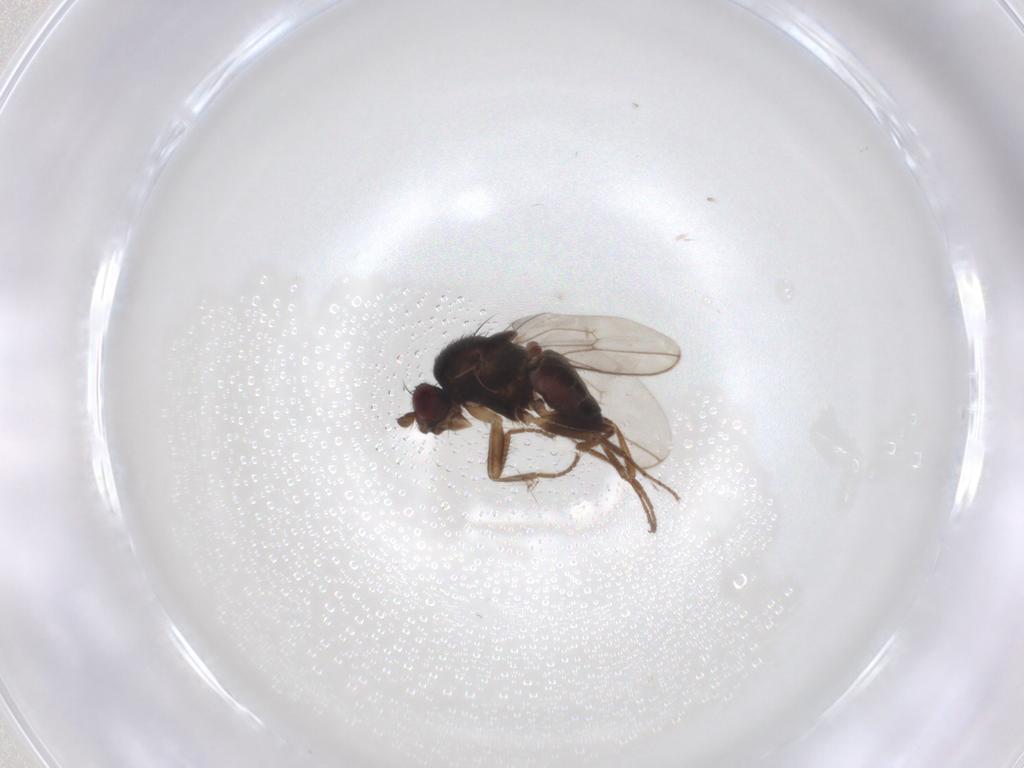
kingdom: Animalia
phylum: Arthropoda
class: Insecta
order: Diptera
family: Sphaeroceridae
